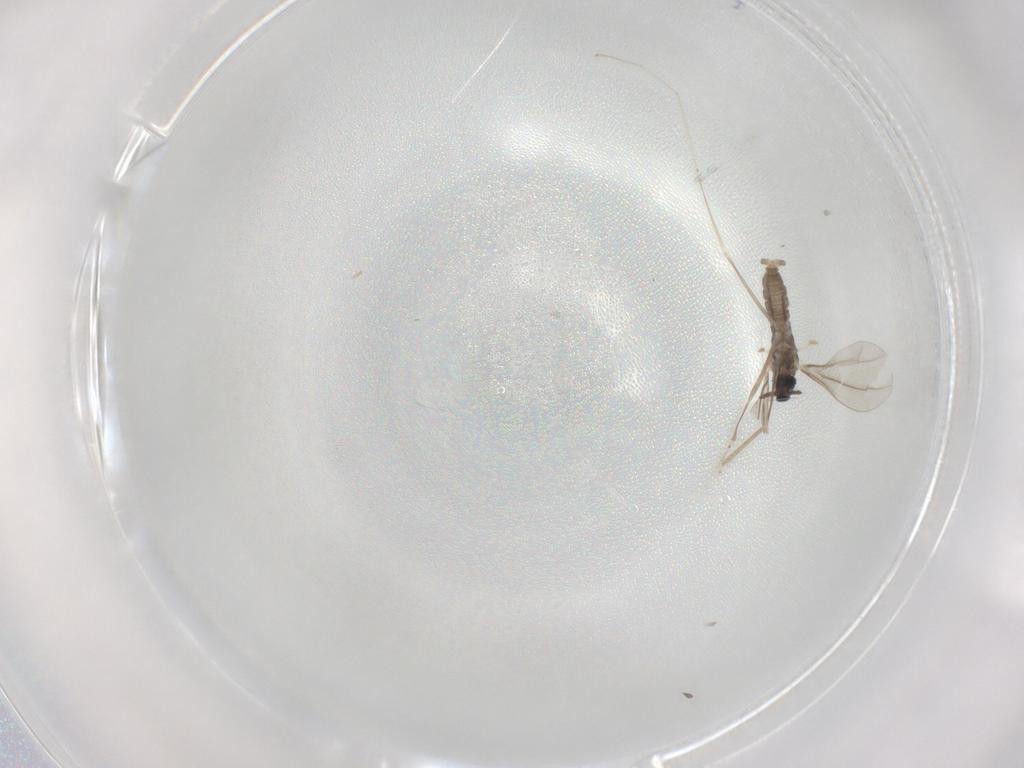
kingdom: Animalia
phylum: Arthropoda
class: Insecta
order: Diptera
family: Cecidomyiidae
